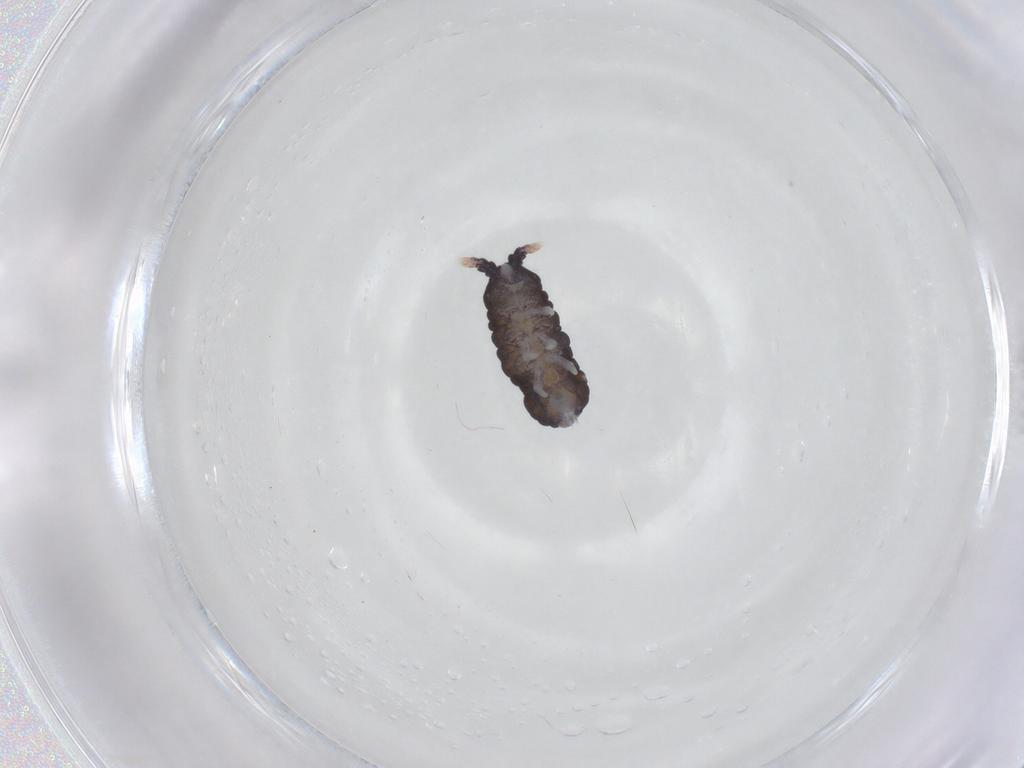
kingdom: Animalia
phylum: Arthropoda
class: Collembola
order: Poduromorpha
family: Neanuridae
